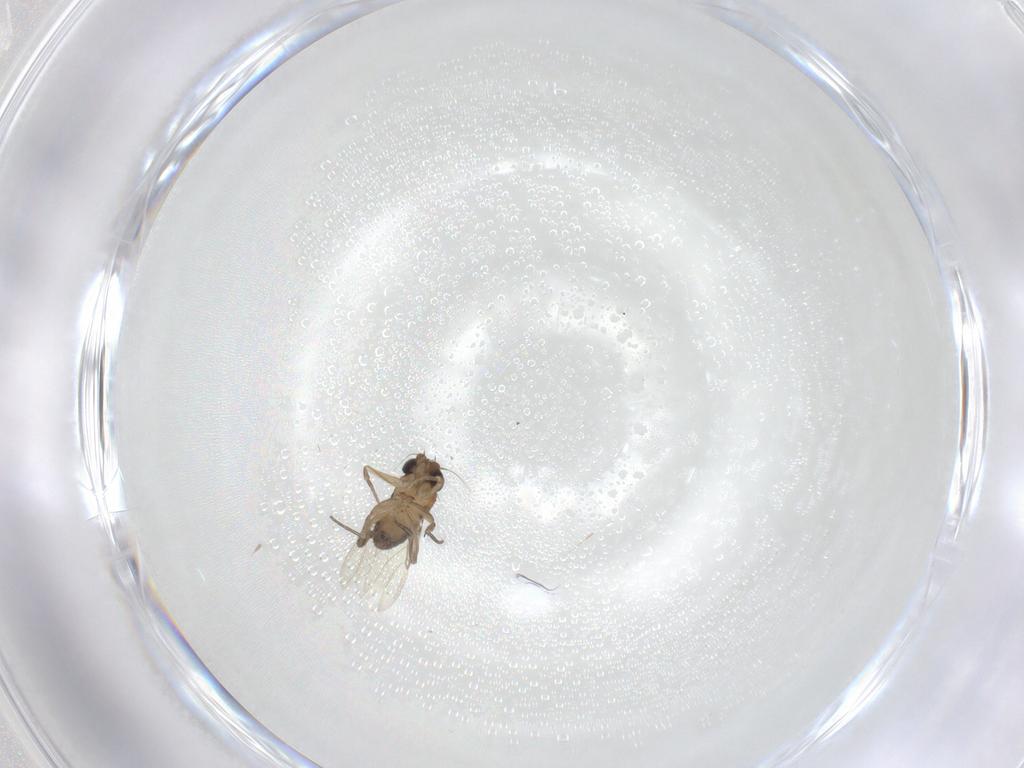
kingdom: Animalia
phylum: Arthropoda
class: Insecta
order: Diptera
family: Phoridae
